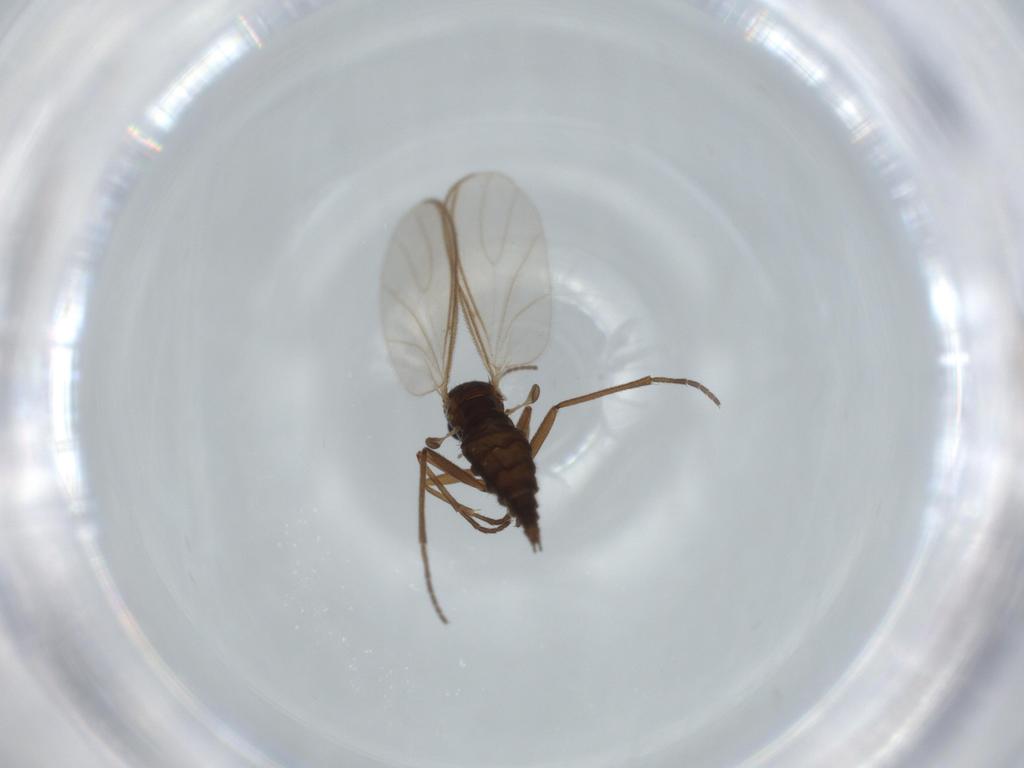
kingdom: Animalia
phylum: Arthropoda
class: Insecta
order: Diptera
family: Sciaridae
